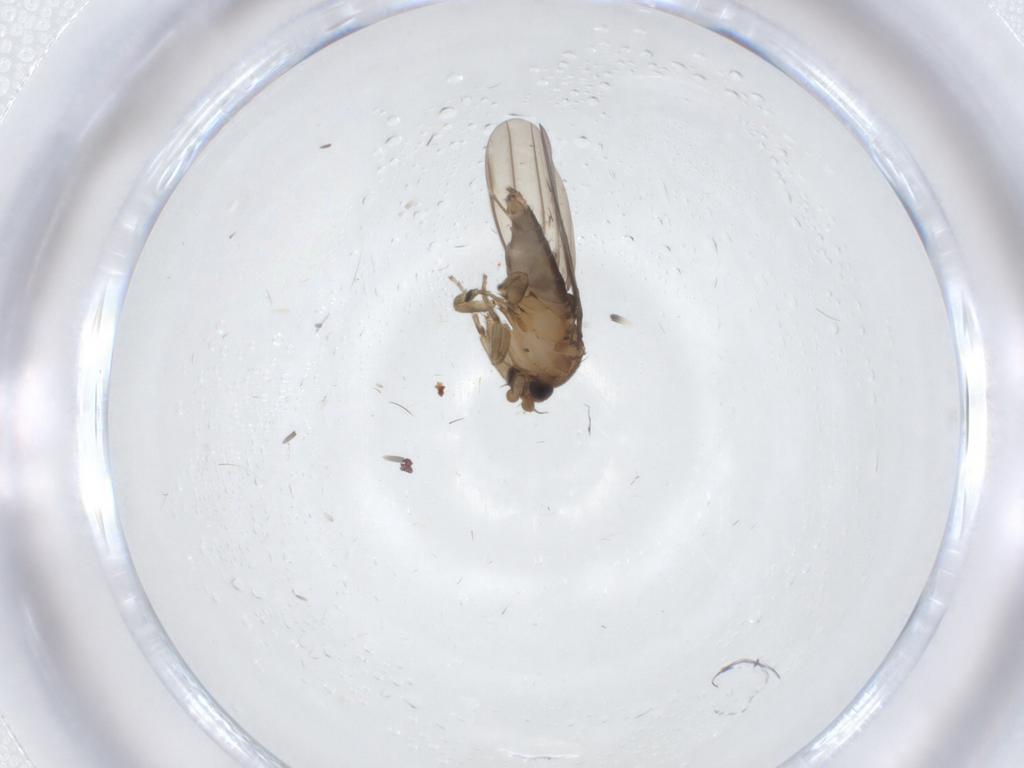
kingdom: Animalia
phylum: Arthropoda
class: Insecta
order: Diptera
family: Phoridae
